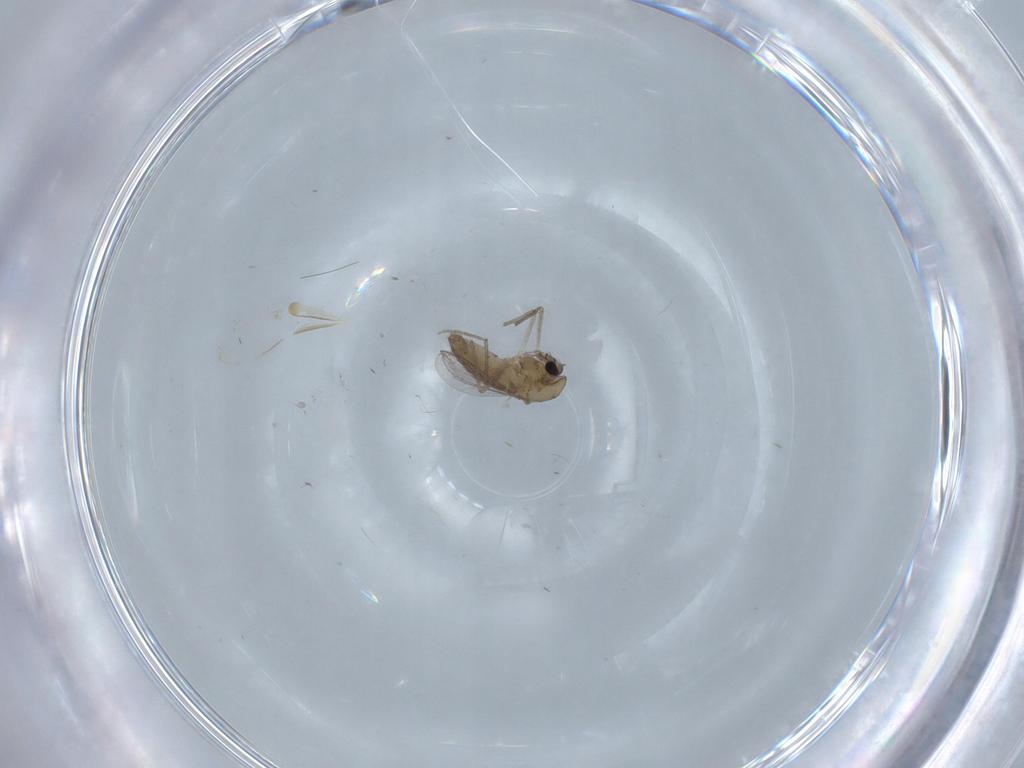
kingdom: Animalia
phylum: Arthropoda
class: Insecta
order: Diptera
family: Chironomidae
